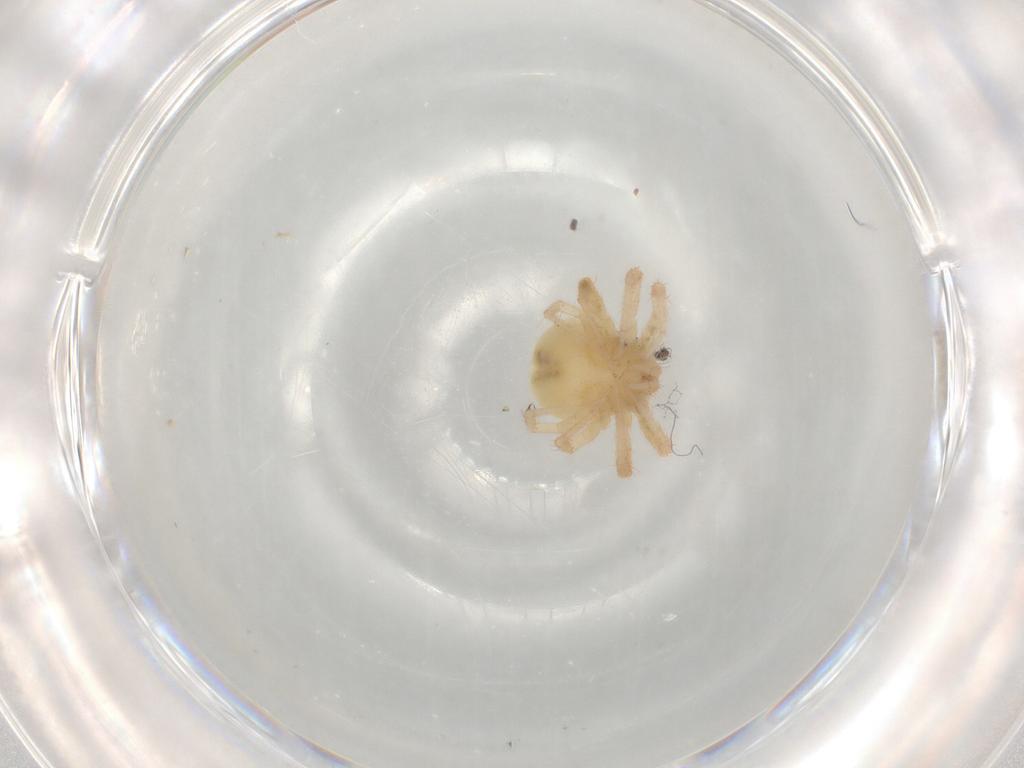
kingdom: Animalia
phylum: Arthropoda
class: Arachnida
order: Trombidiformes
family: Anystidae
